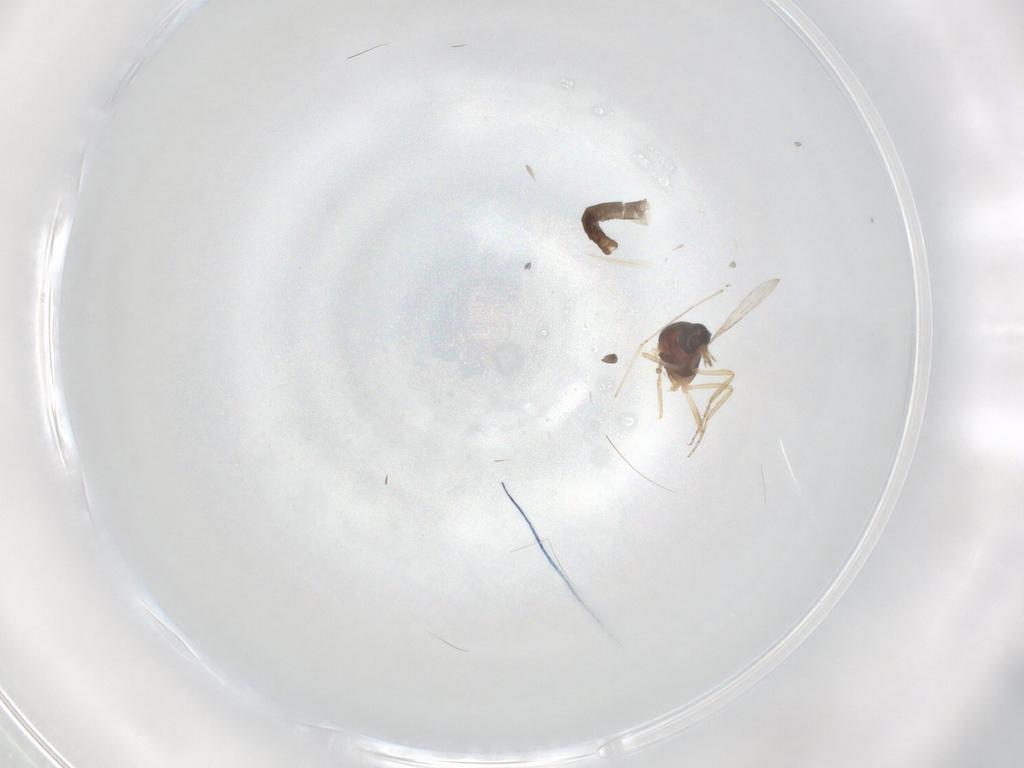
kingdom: Animalia
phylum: Arthropoda
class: Insecta
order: Diptera
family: Ceratopogonidae
